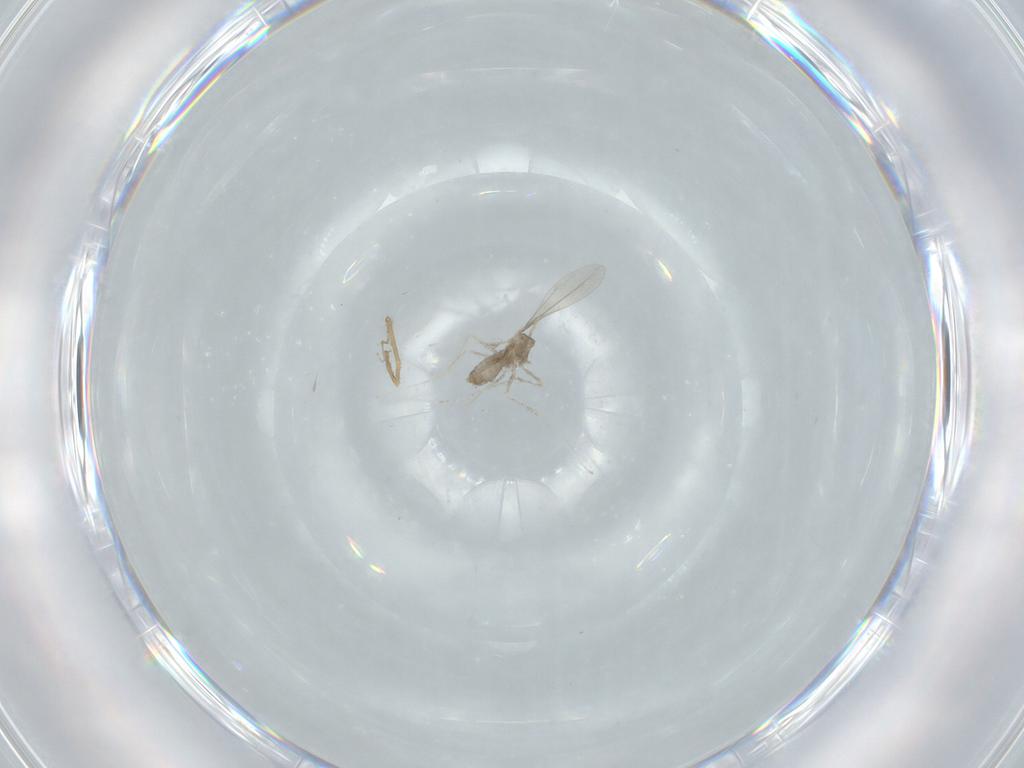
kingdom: Animalia
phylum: Arthropoda
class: Insecta
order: Diptera
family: Cecidomyiidae
